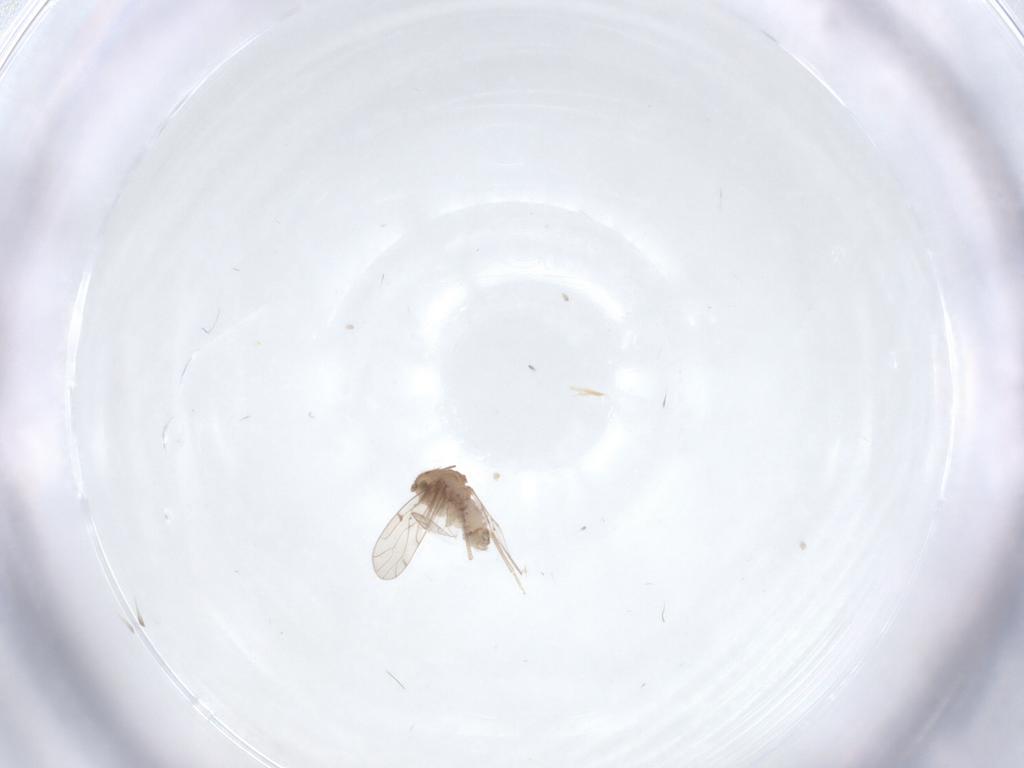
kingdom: Animalia
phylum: Arthropoda
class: Insecta
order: Psocodea
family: Ectopsocidae
